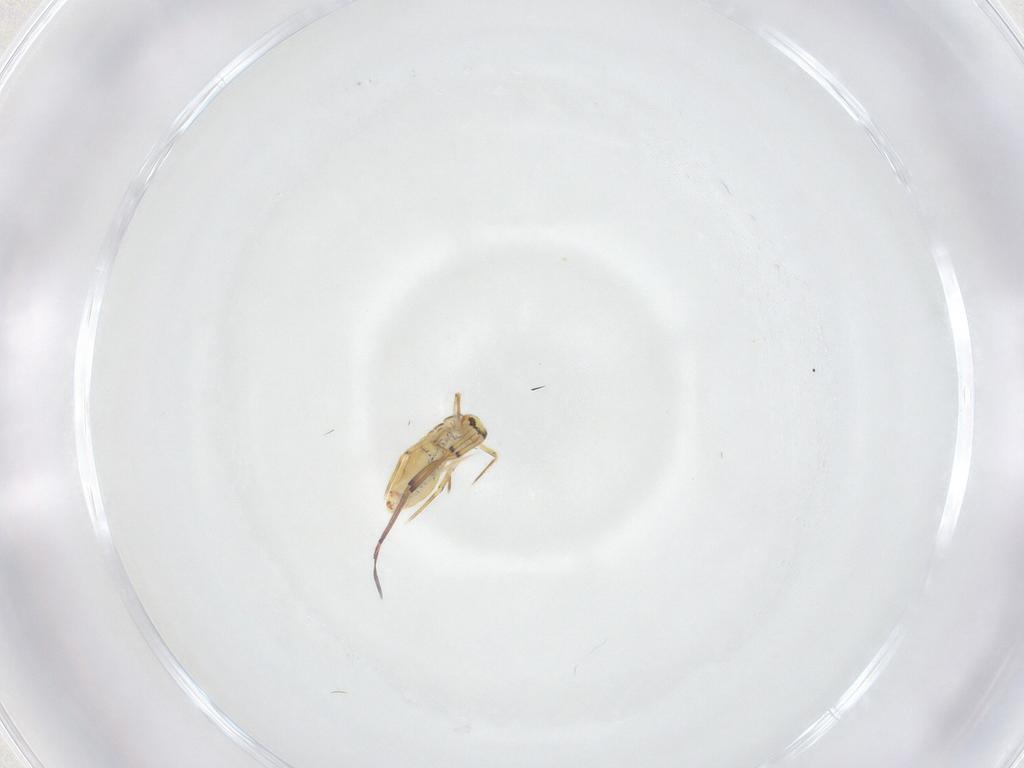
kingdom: Animalia
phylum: Arthropoda
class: Collembola
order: Entomobryomorpha
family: Paronellidae
